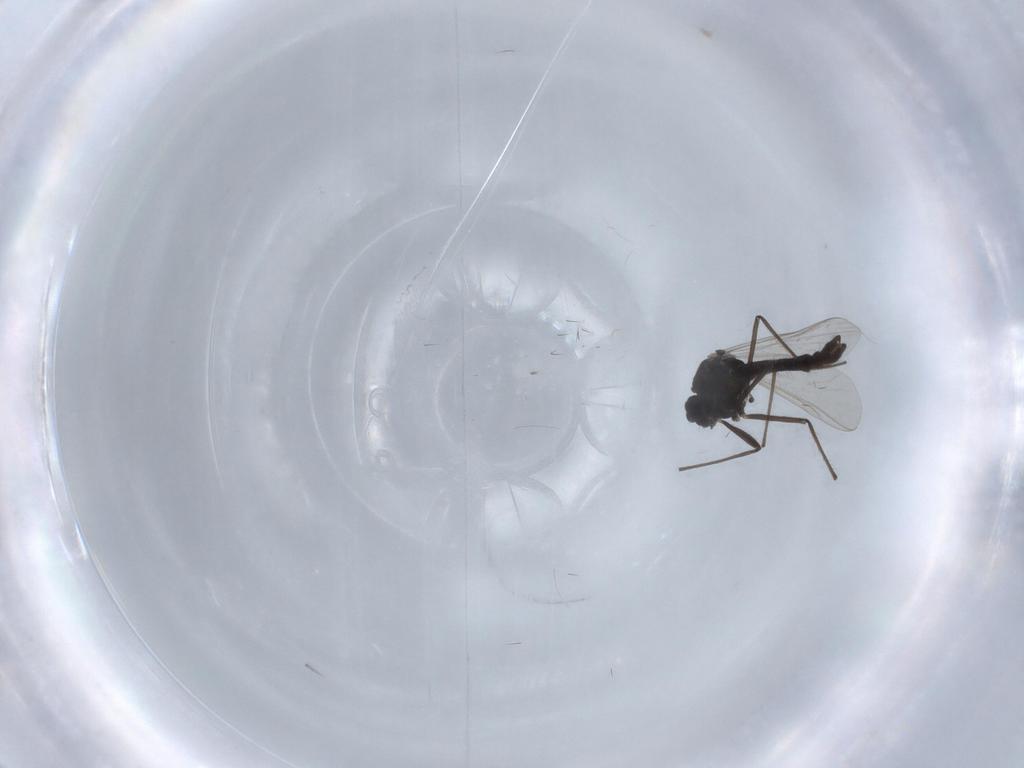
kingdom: Animalia
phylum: Arthropoda
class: Insecta
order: Diptera
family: Chironomidae
